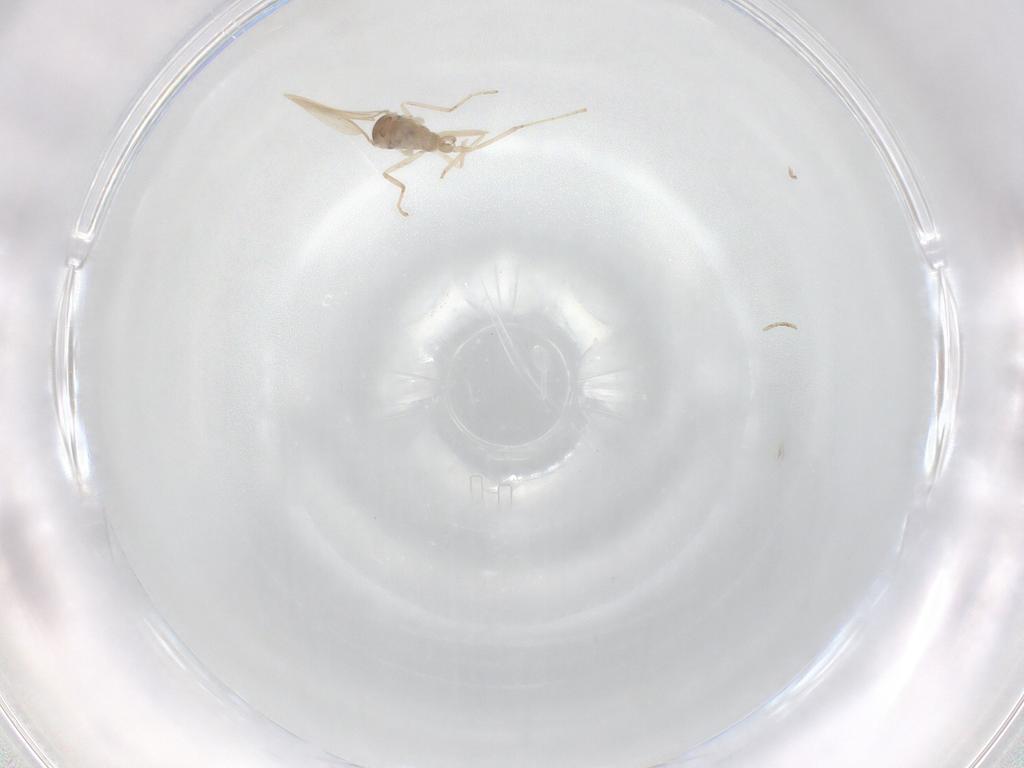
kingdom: Animalia
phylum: Arthropoda
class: Insecta
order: Diptera
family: Cecidomyiidae
